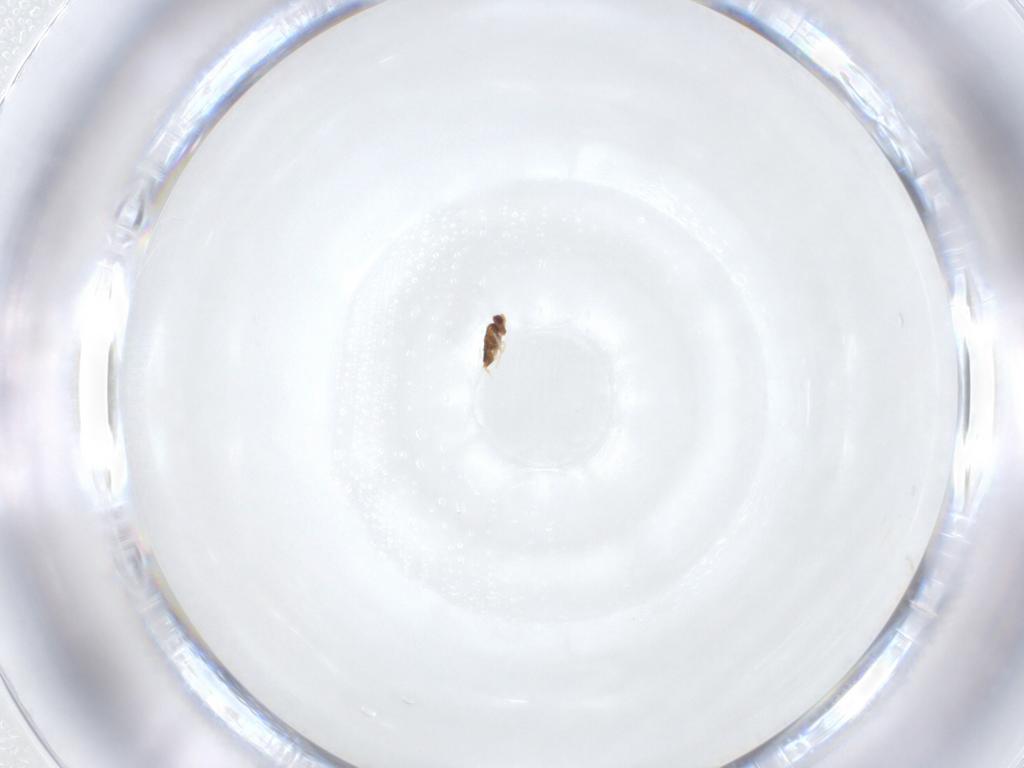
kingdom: Animalia
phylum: Arthropoda
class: Insecta
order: Hymenoptera
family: Aphelinidae
